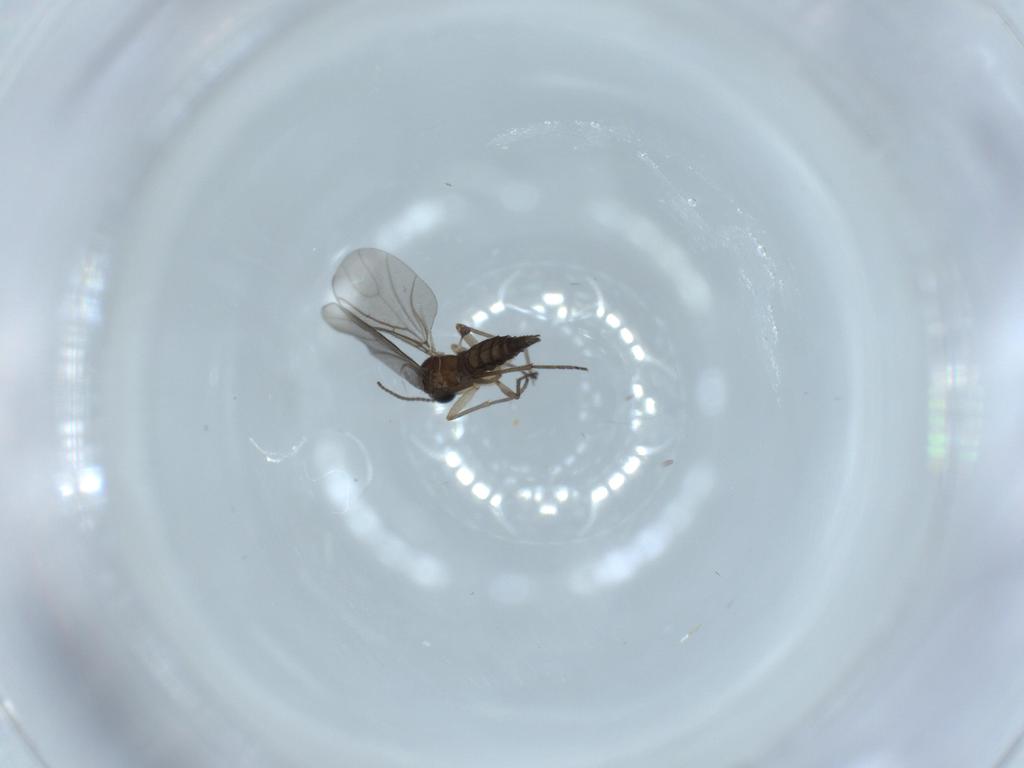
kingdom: Animalia
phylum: Arthropoda
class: Insecta
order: Diptera
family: Sciaridae
